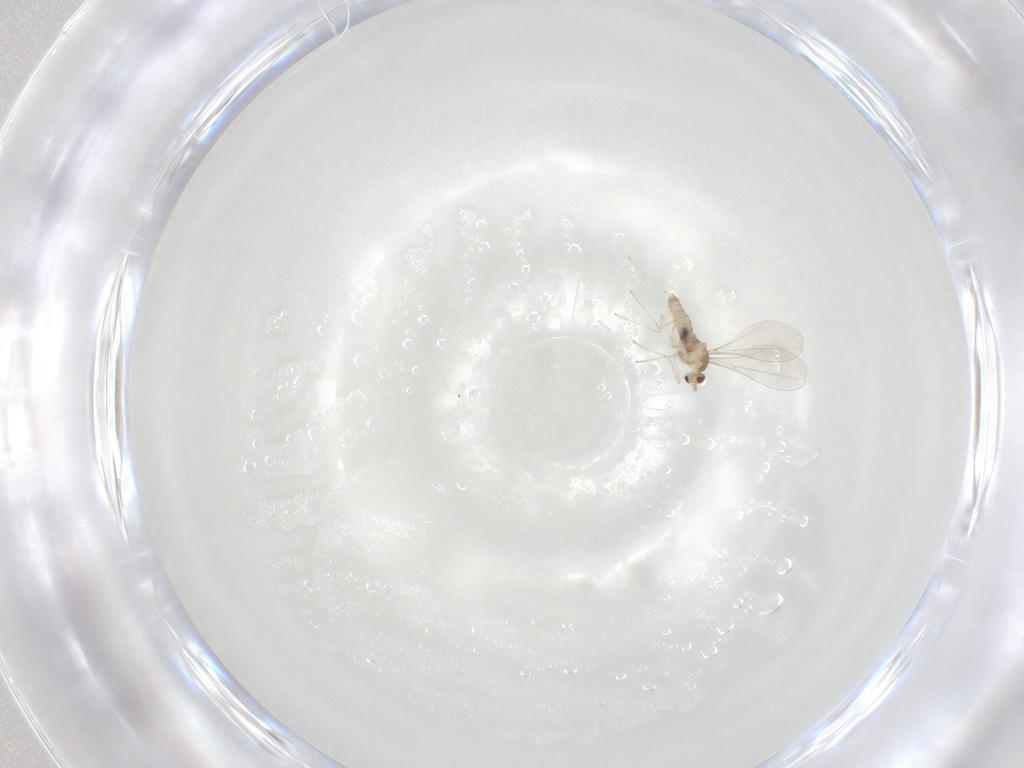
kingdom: Animalia
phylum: Arthropoda
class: Insecta
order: Diptera
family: Cecidomyiidae
